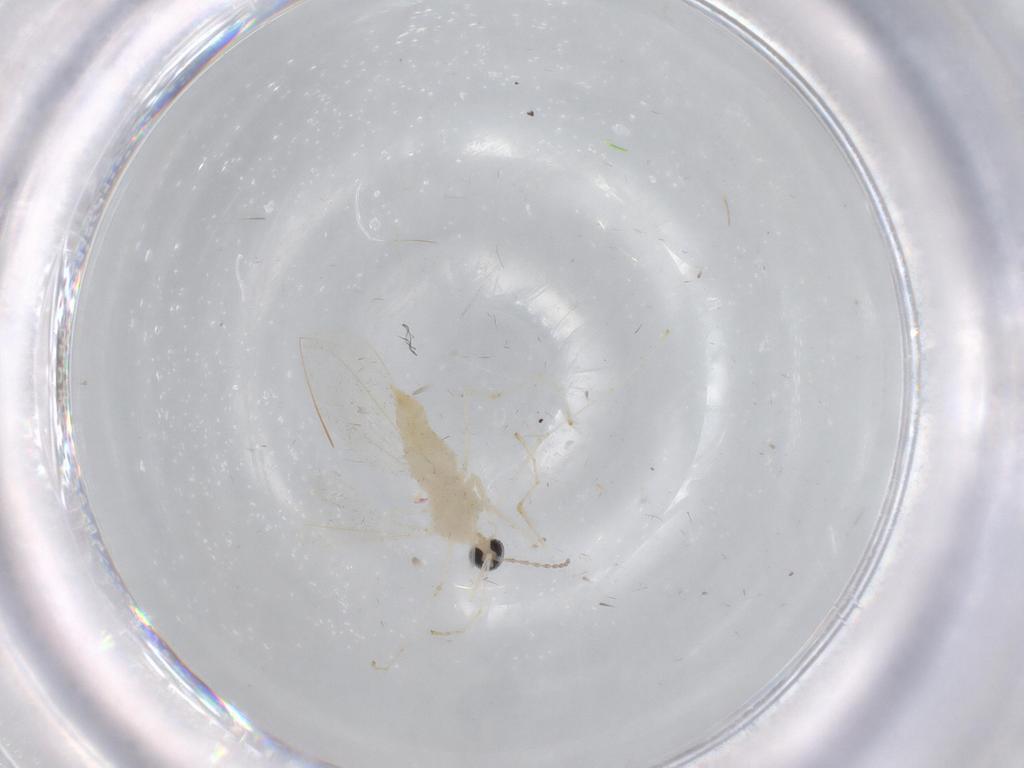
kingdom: Animalia
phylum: Arthropoda
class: Insecta
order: Diptera
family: Cecidomyiidae
